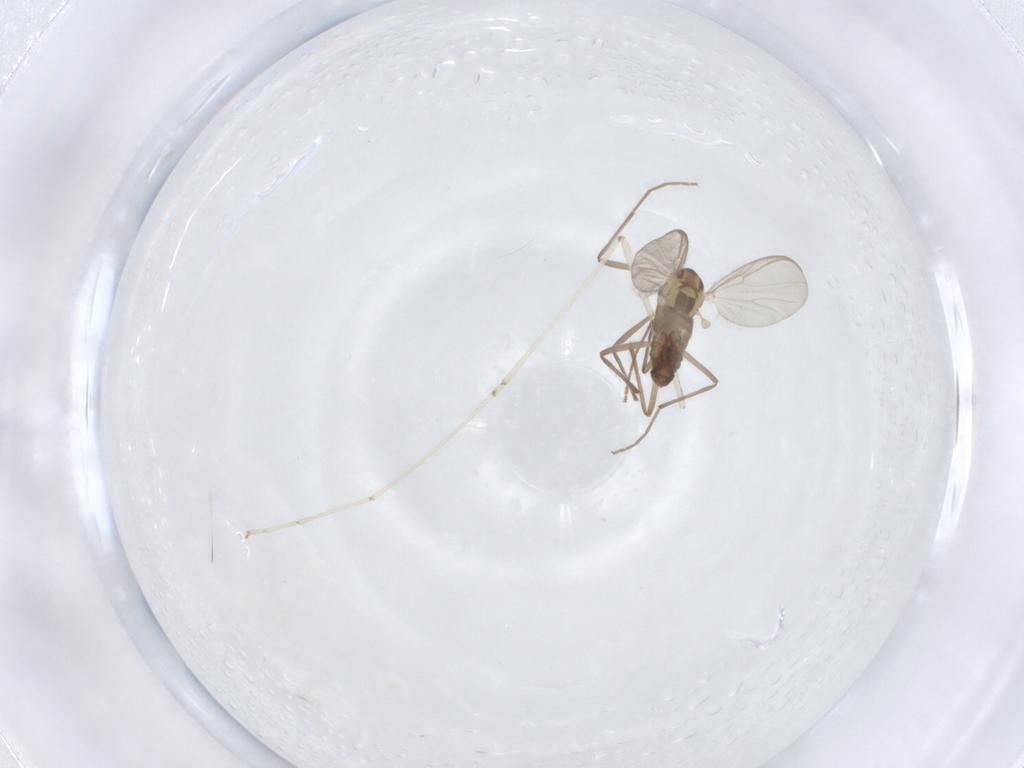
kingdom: Animalia
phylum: Arthropoda
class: Insecta
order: Diptera
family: Chironomidae
